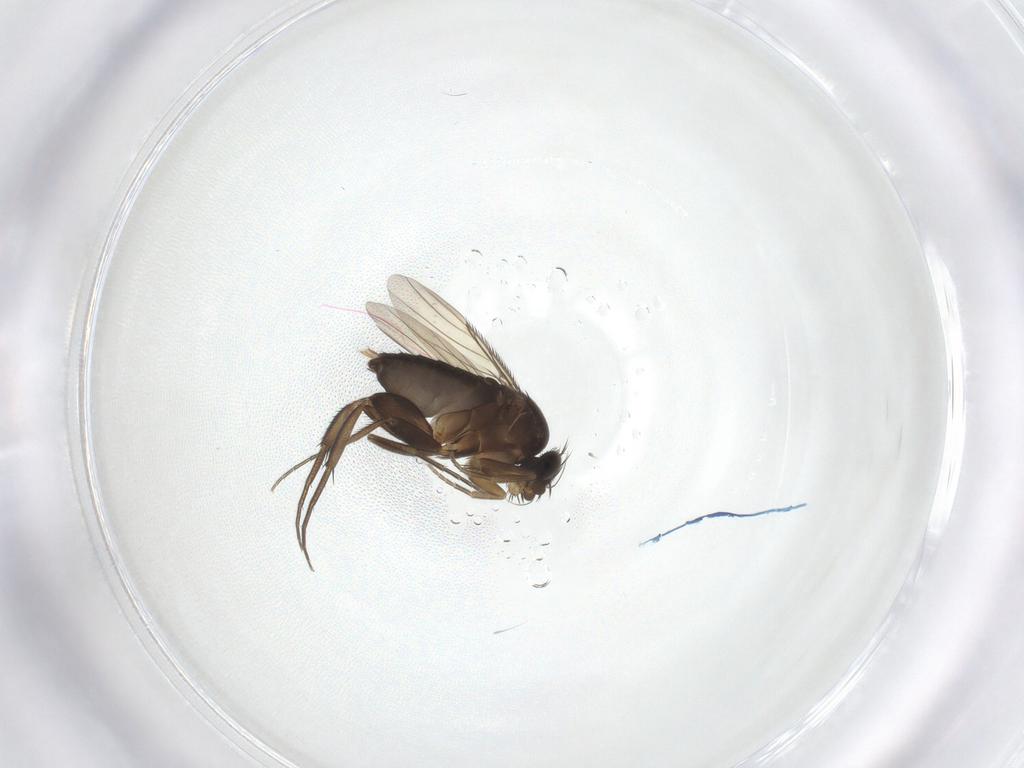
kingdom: Animalia
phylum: Arthropoda
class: Insecta
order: Diptera
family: Phoridae
